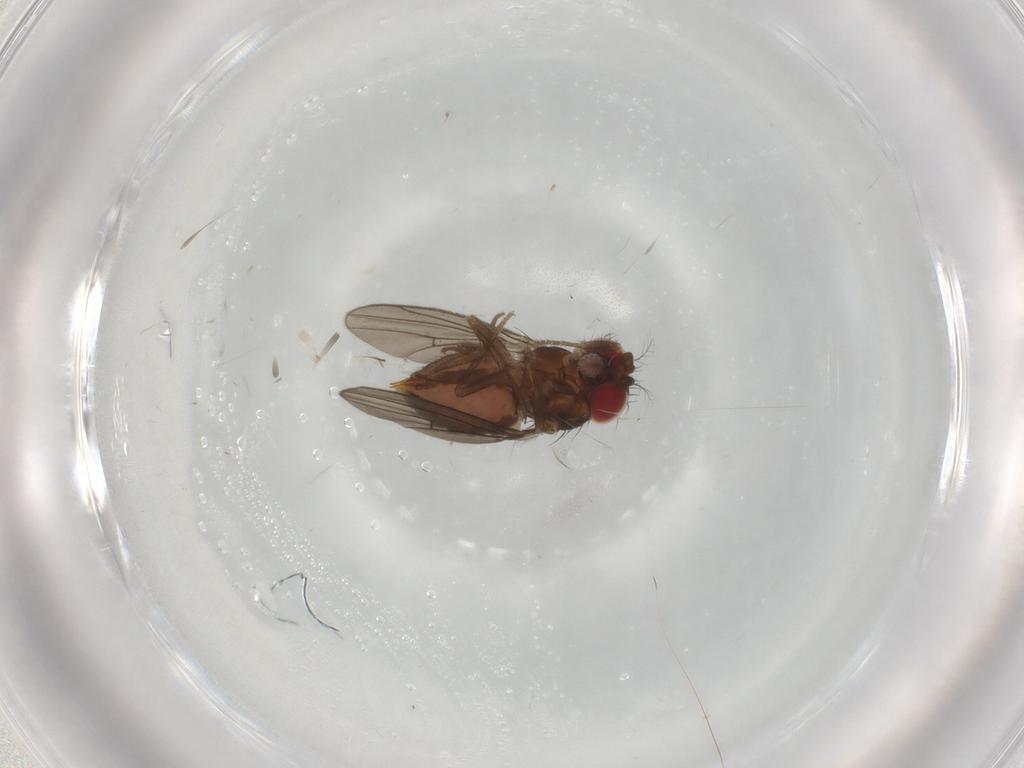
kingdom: Animalia
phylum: Arthropoda
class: Insecta
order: Diptera
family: Drosophilidae
